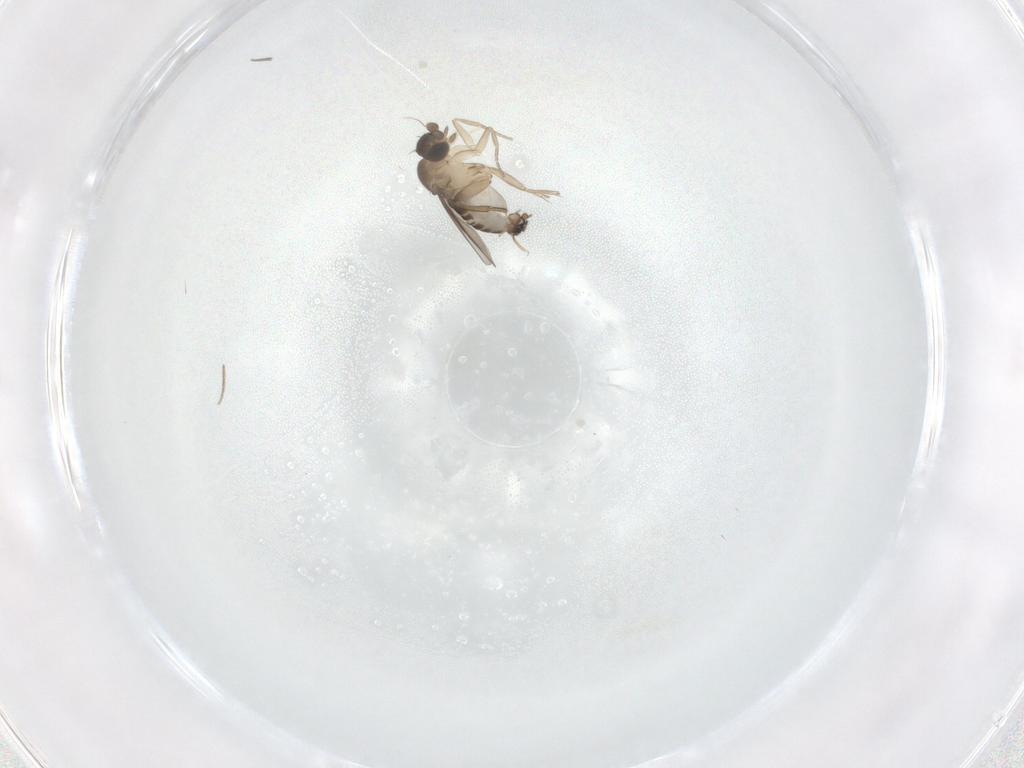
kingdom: Animalia
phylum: Arthropoda
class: Insecta
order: Diptera
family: Phoridae
